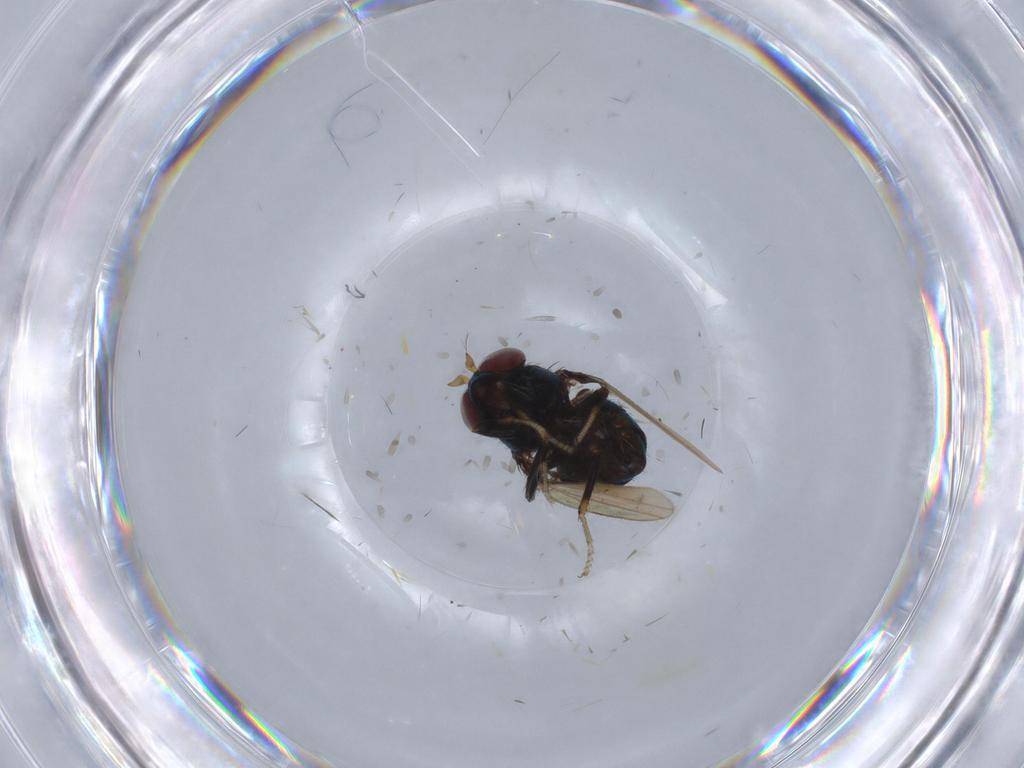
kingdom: Animalia
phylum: Arthropoda
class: Insecta
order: Diptera
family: Ephydridae
